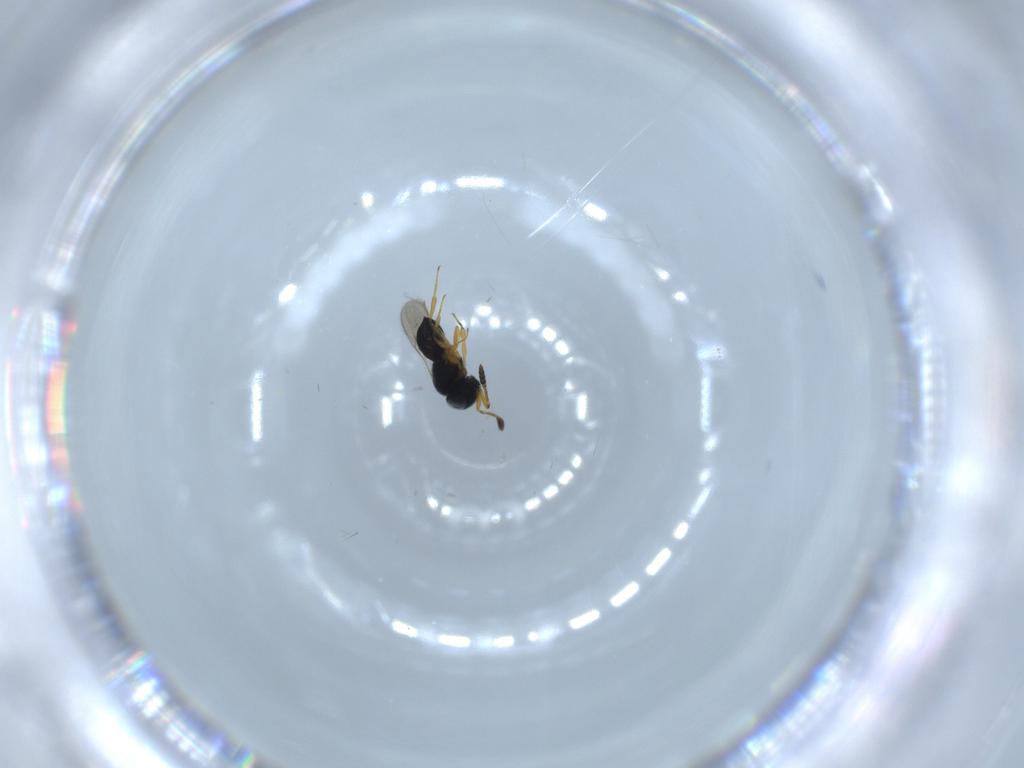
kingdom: Animalia
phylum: Arthropoda
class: Insecta
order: Hymenoptera
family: Scelionidae
